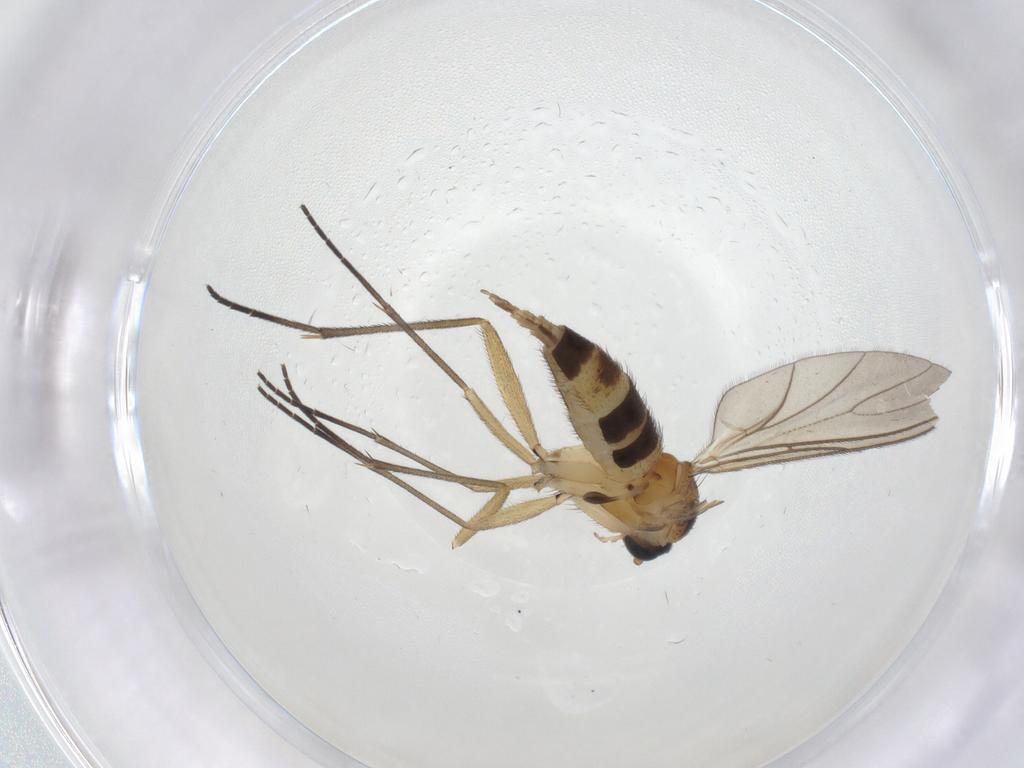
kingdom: Animalia
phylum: Arthropoda
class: Insecta
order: Diptera
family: Sciaridae
